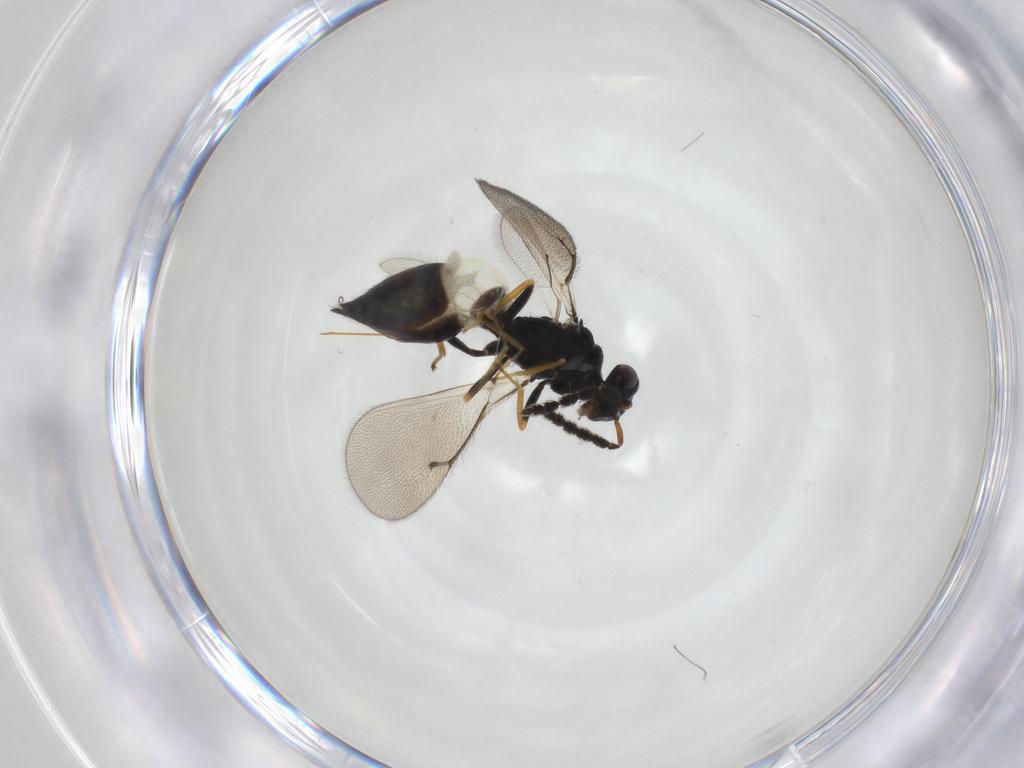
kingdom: Animalia
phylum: Arthropoda
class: Insecta
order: Hymenoptera
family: Eulophidae
